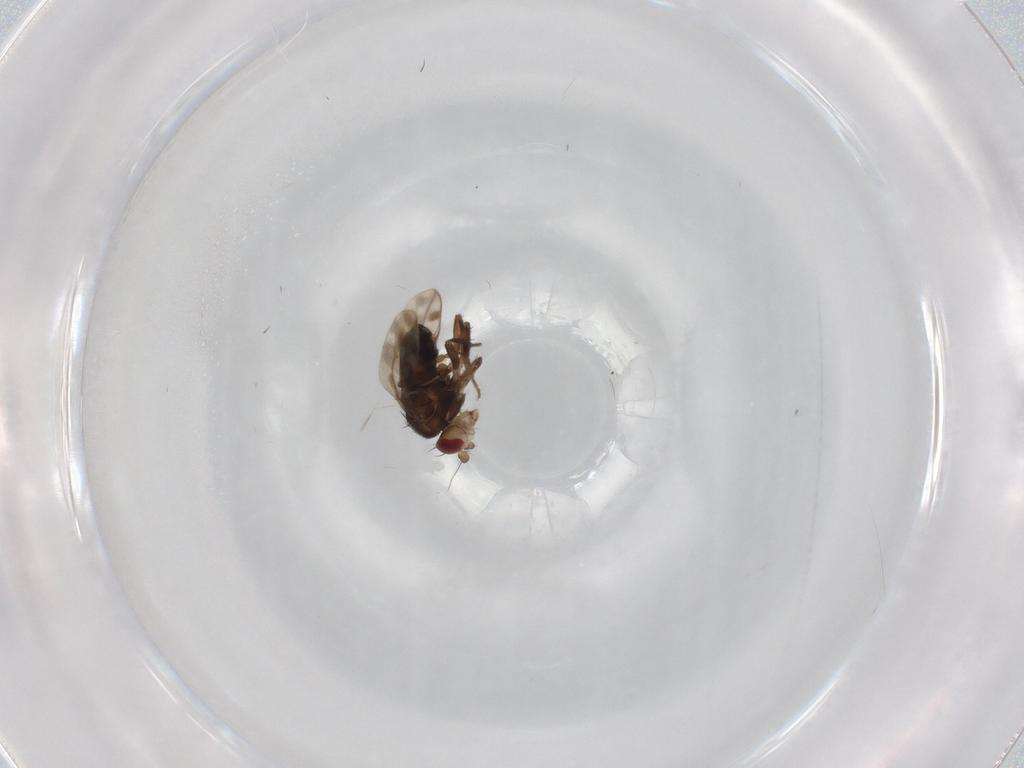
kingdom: Animalia
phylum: Arthropoda
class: Insecta
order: Diptera
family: Sphaeroceridae
